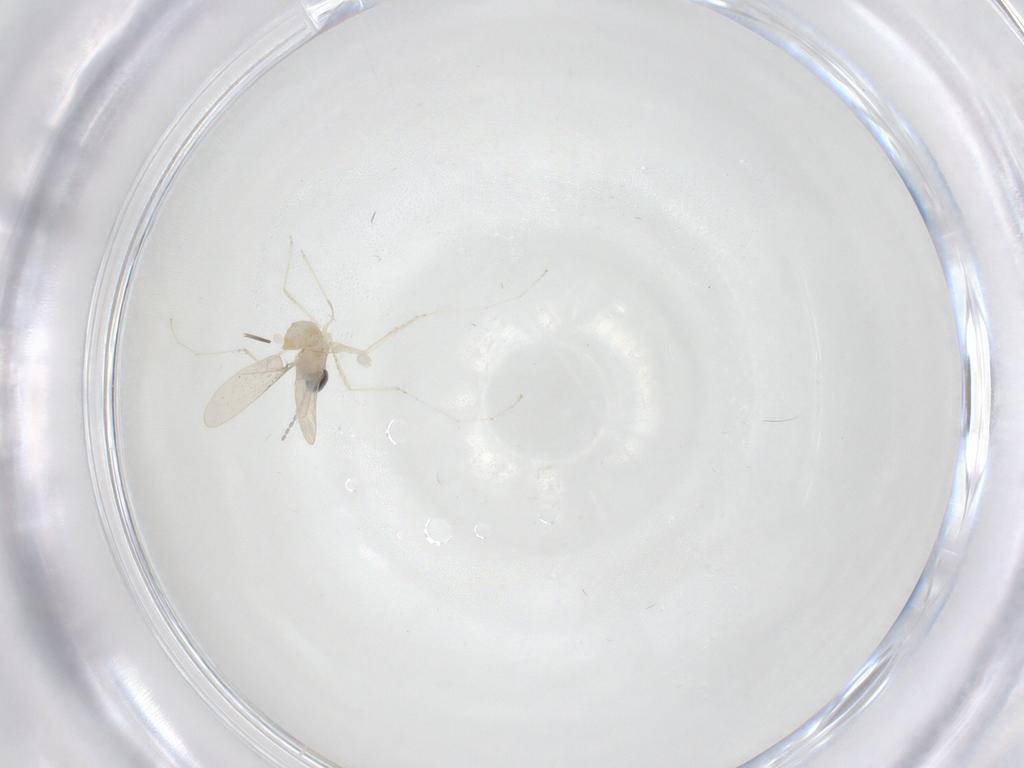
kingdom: Animalia
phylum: Arthropoda
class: Insecta
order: Diptera
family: Cecidomyiidae
